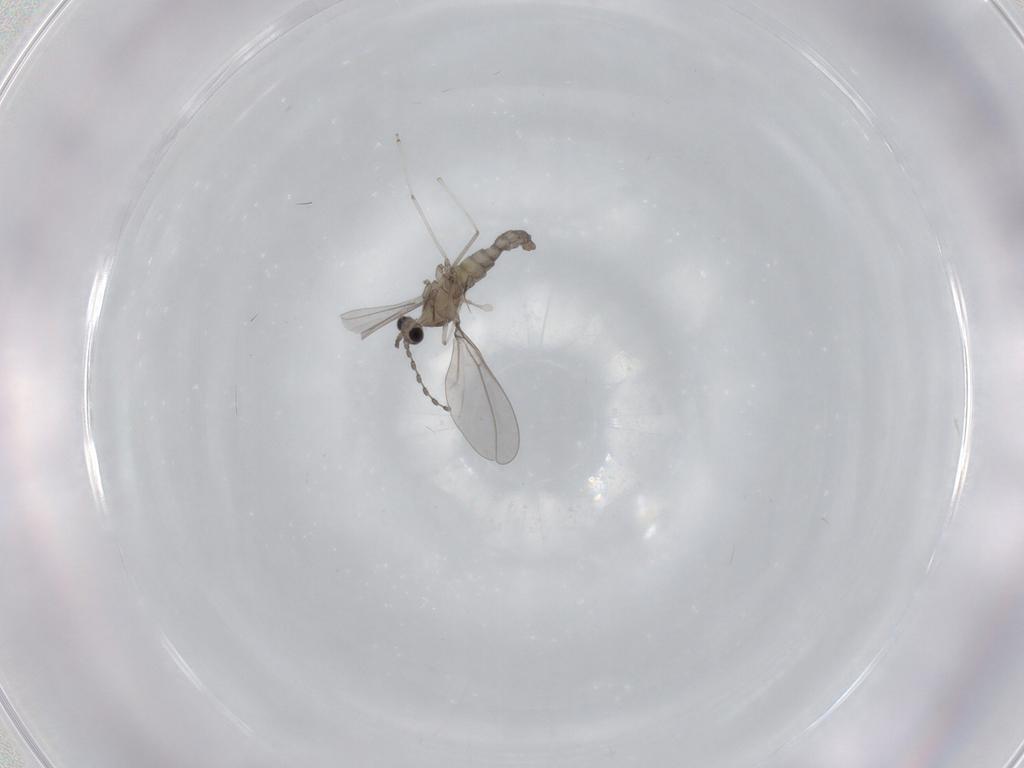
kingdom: Animalia
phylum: Arthropoda
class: Insecta
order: Diptera
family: Cecidomyiidae
